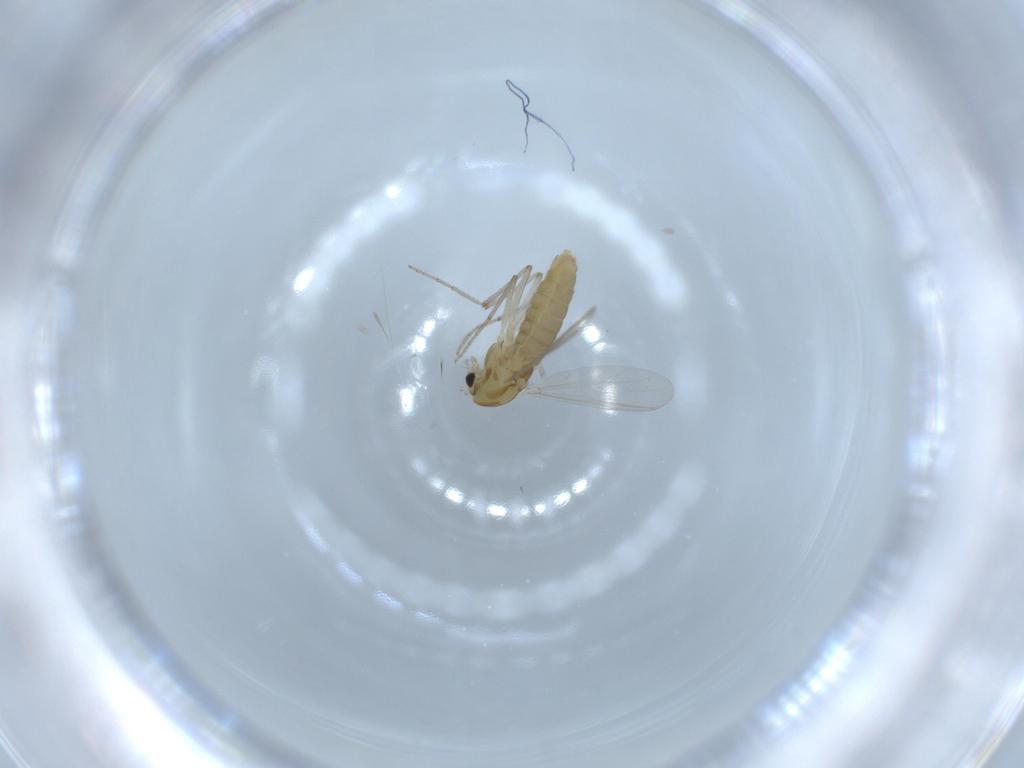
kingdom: Animalia
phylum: Arthropoda
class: Insecta
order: Diptera
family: Chironomidae
